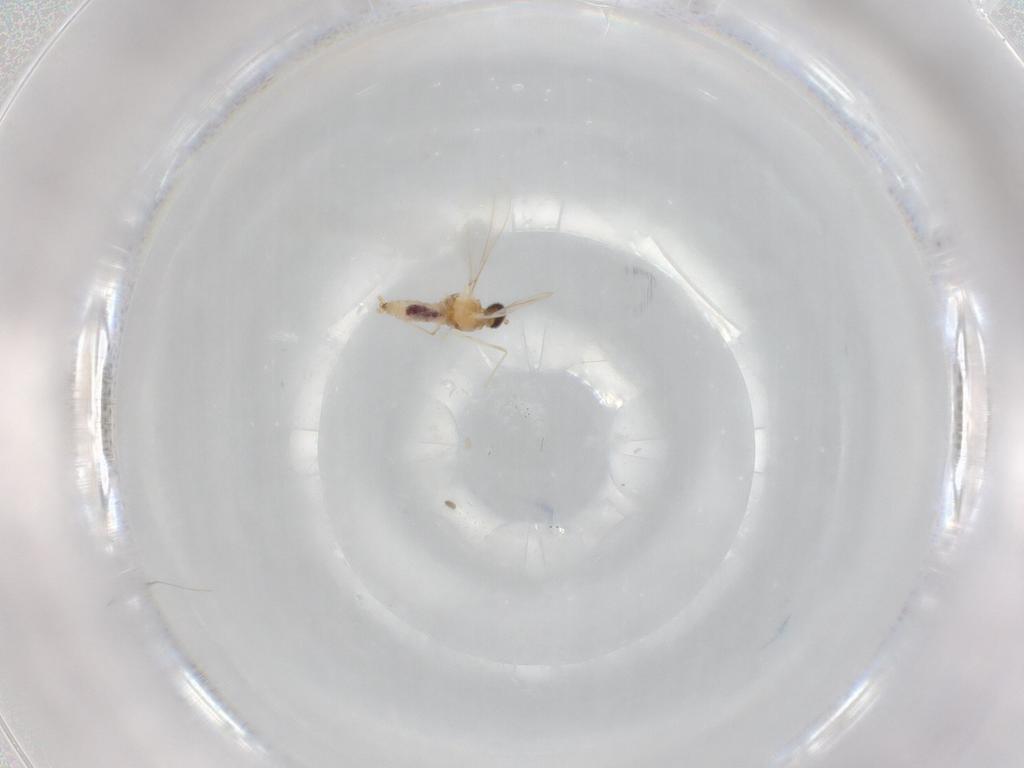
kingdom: Animalia
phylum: Arthropoda
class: Insecta
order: Diptera
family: Cecidomyiidae
